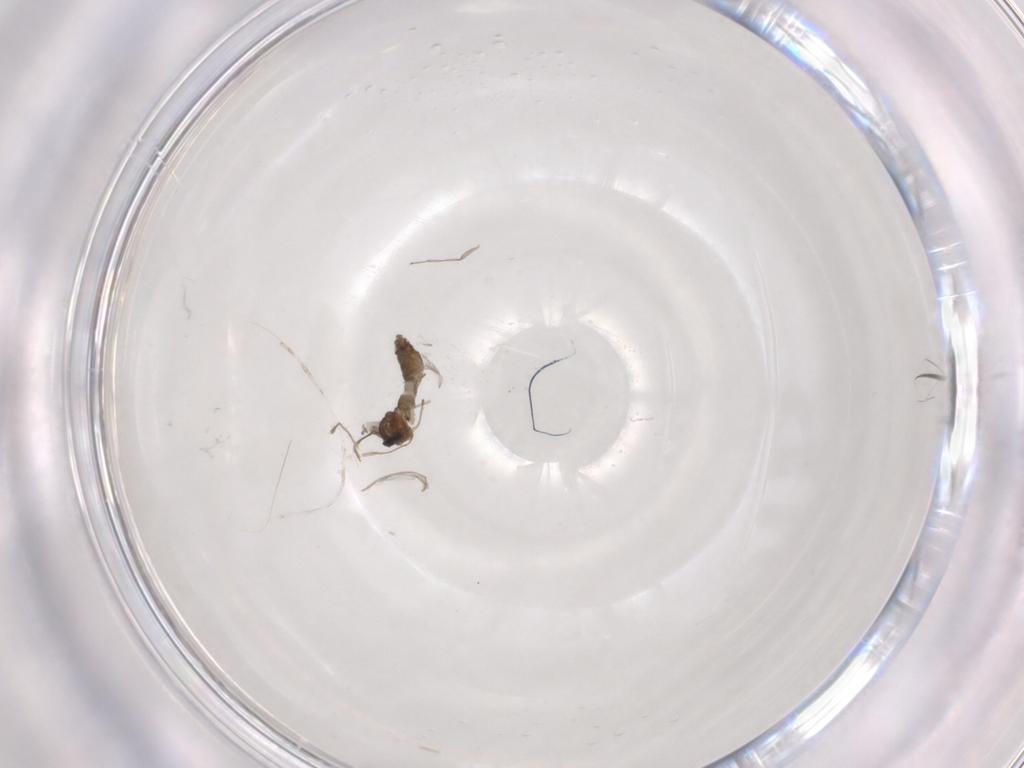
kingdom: Animalia
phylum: Arthropoda
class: Insecta
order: Diptera
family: Chironomidae
